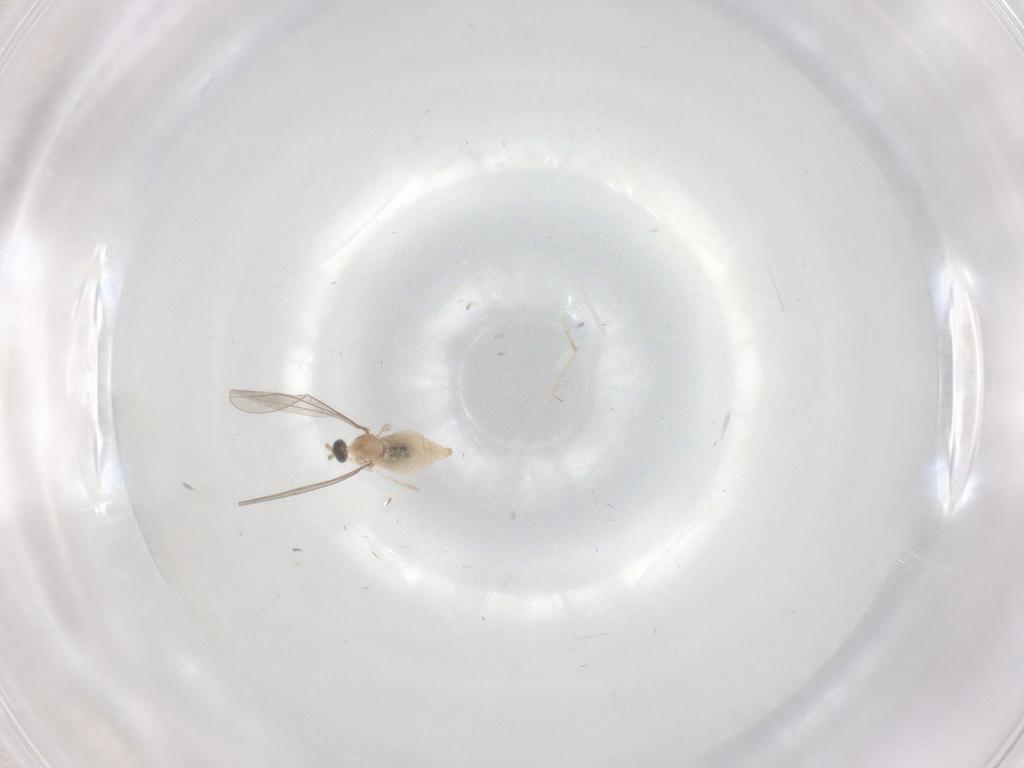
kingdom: Animalia
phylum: Arthropoda
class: Insecta
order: Diptera
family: Cecidomyiidae
